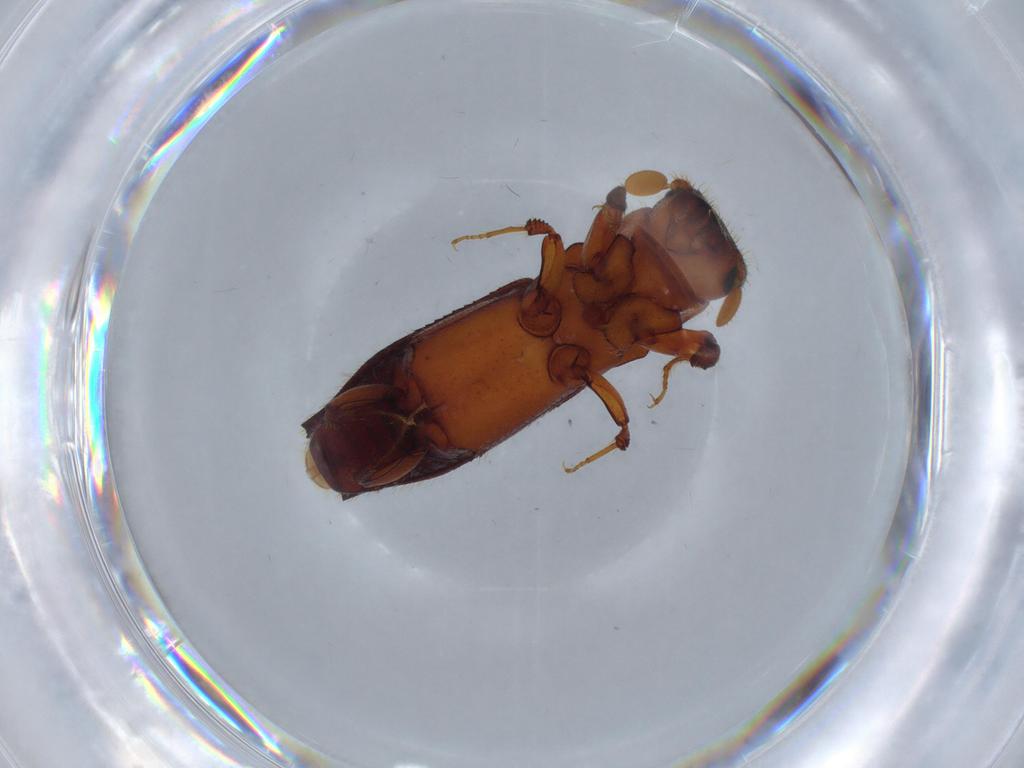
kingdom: Animalia
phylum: Arthropoda
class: Insecta
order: Coleoptera
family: Curculionidae
